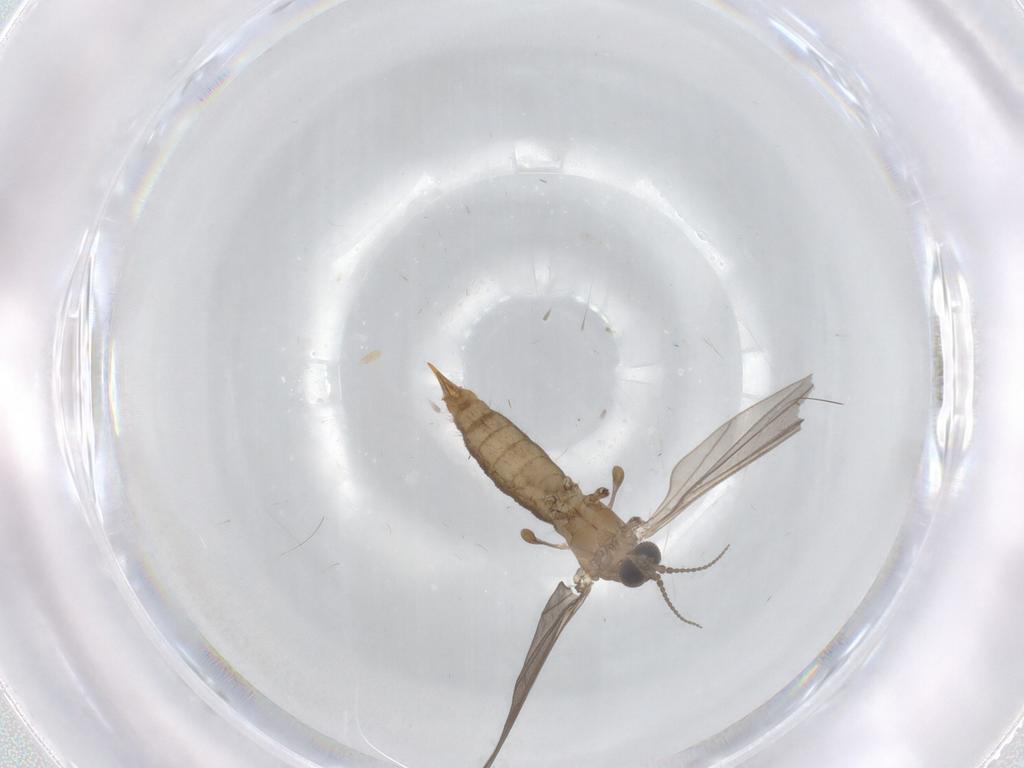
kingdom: Animalia
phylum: Arthropoda
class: Insecta
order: Diptera
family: Limoniidae
